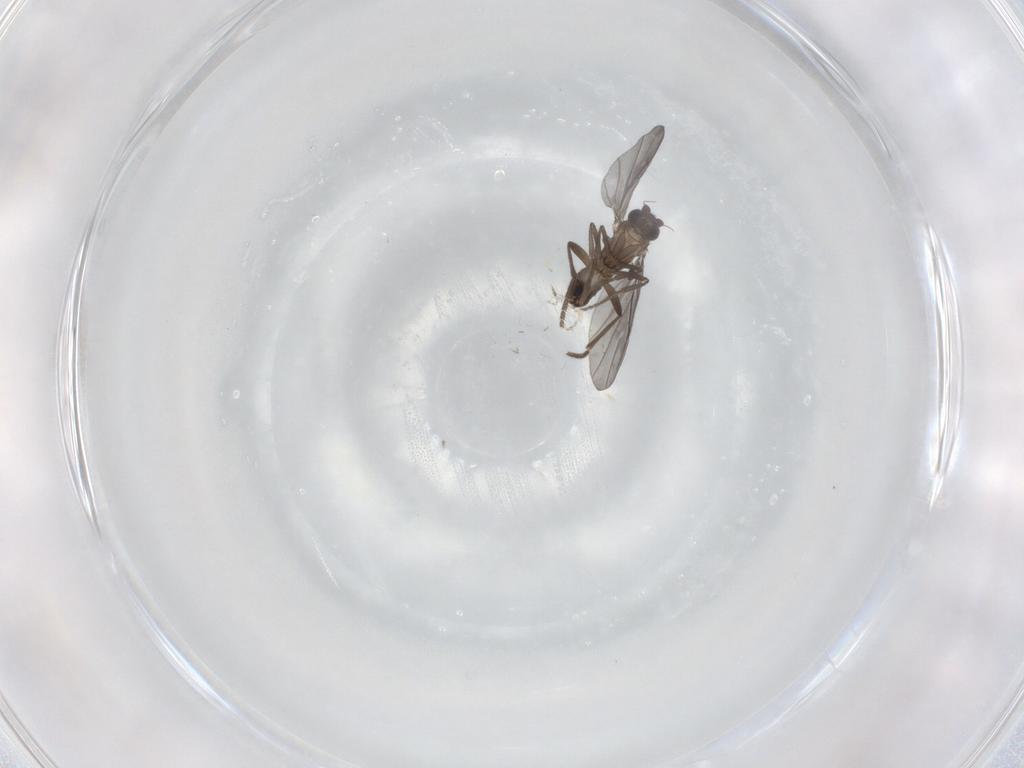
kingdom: Animalia
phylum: Arthropoda
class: Insecta
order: Diptera
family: Phoridae
